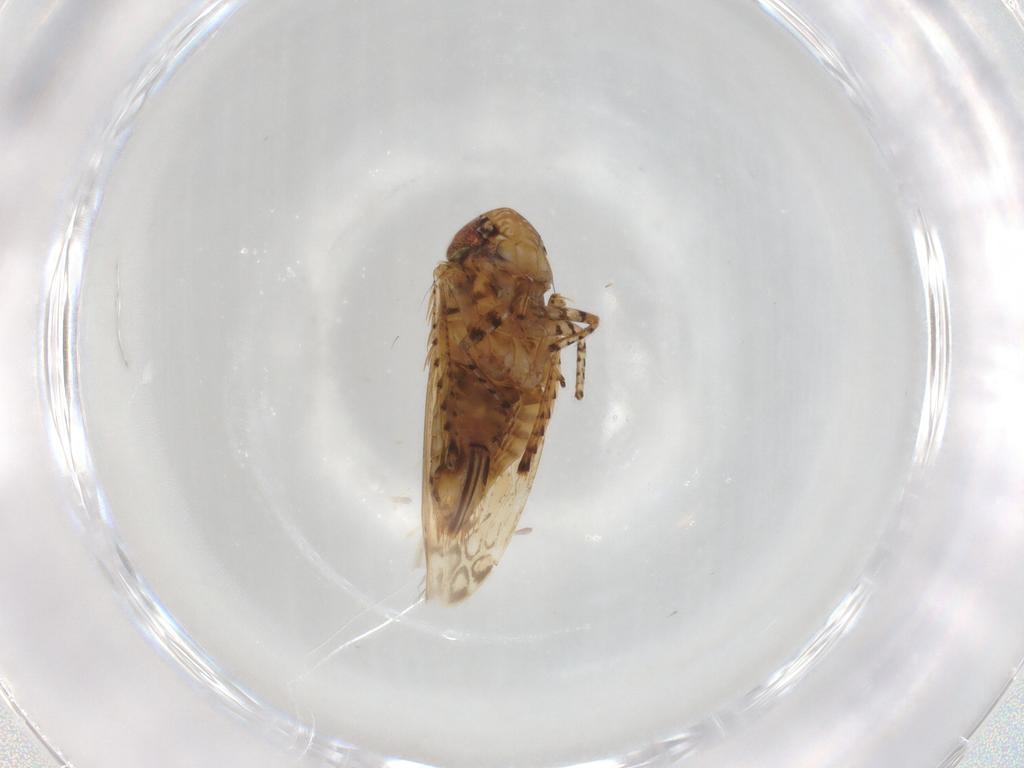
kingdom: Animalia
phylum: Arthropoda
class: Insecta
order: Hemiptera
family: Cicadellidae
